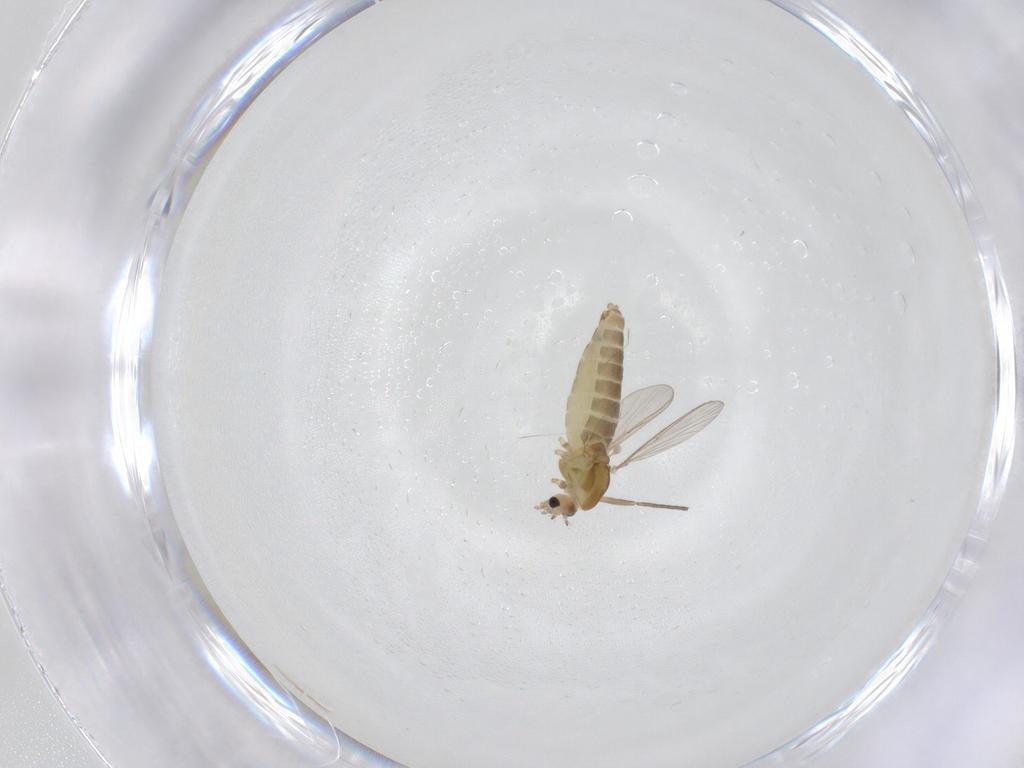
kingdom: Animalia
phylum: Arthropoda
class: Insecta
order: Diptera
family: Chironomidae
